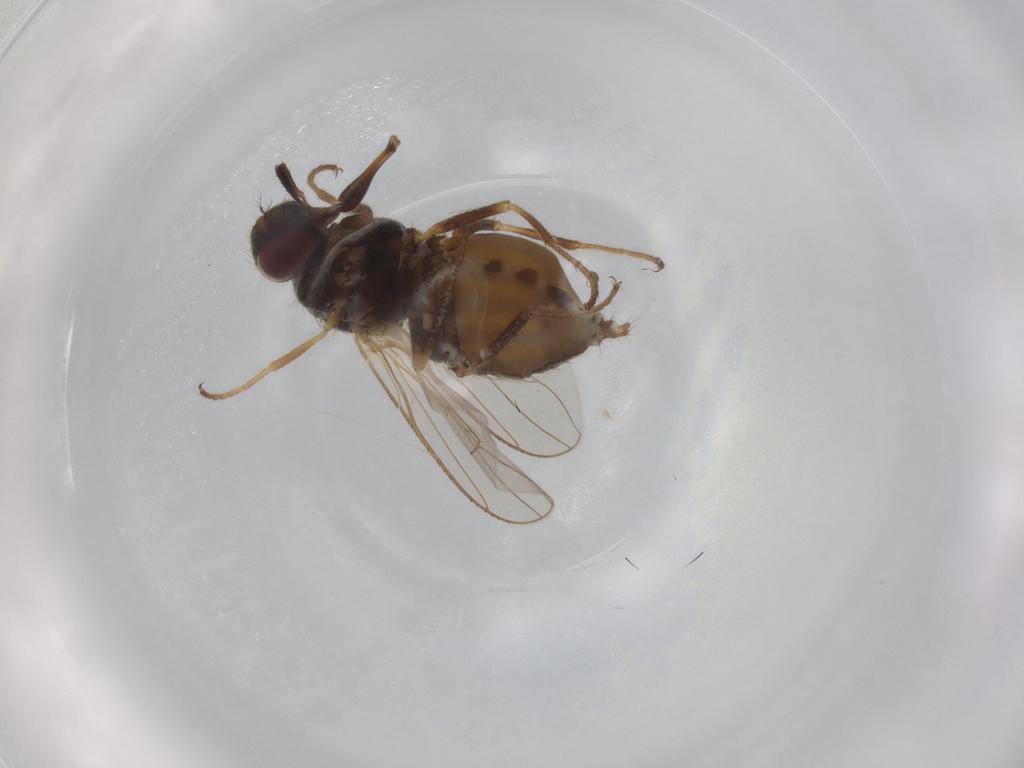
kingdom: Animalia
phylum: Arthropoda
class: Insecta
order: Diptera
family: Muscidae
